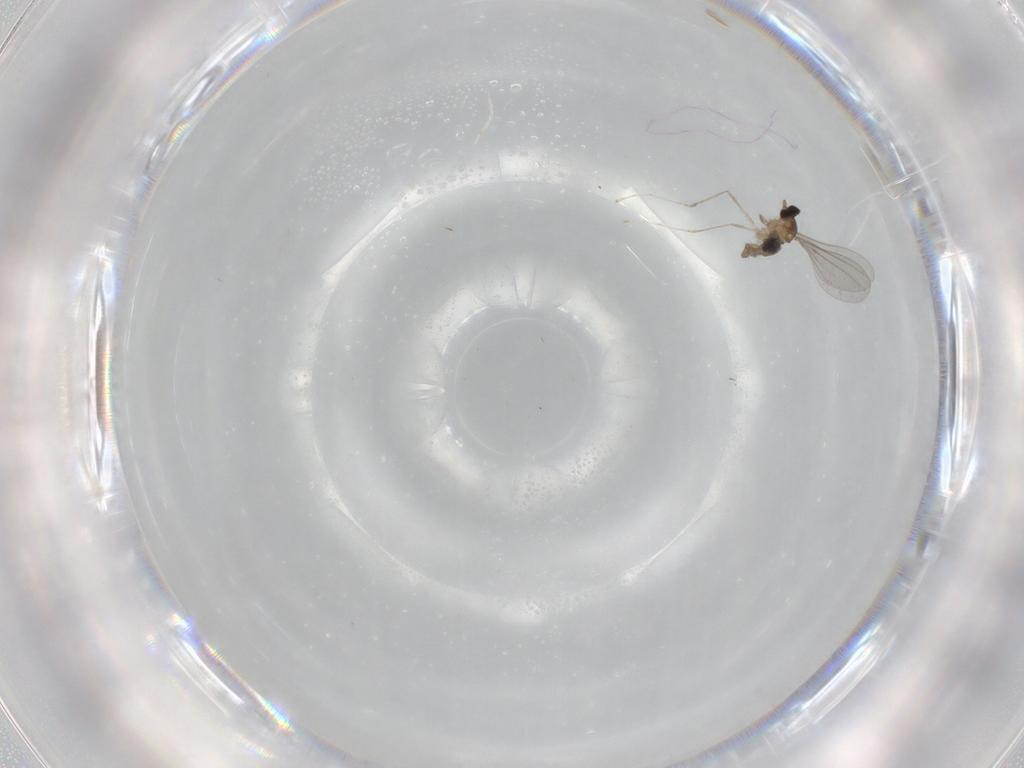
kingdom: Animalia
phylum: Arthropoda
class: Insecta
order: Diptera
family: Cecidomyiidae
